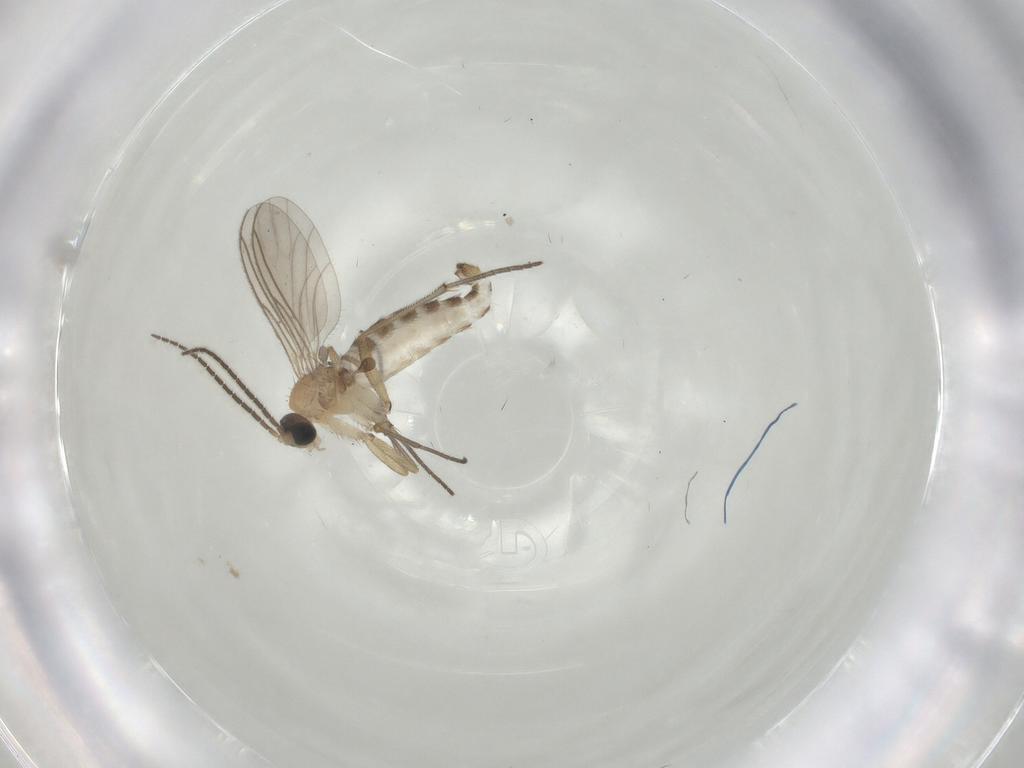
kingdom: Animalia
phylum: Arthropoda
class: Insecta
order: Diptera
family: Sciaridae
